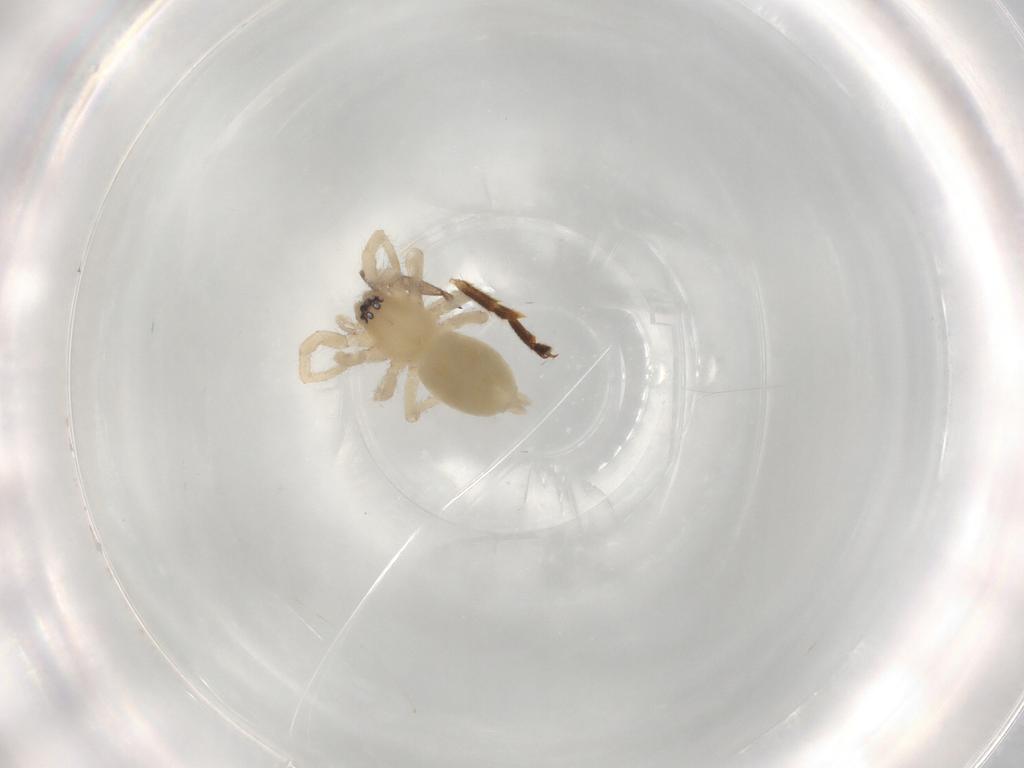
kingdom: Animalia
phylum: Arthropoda
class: Arachnida
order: Araneae
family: Gnaphosidae
